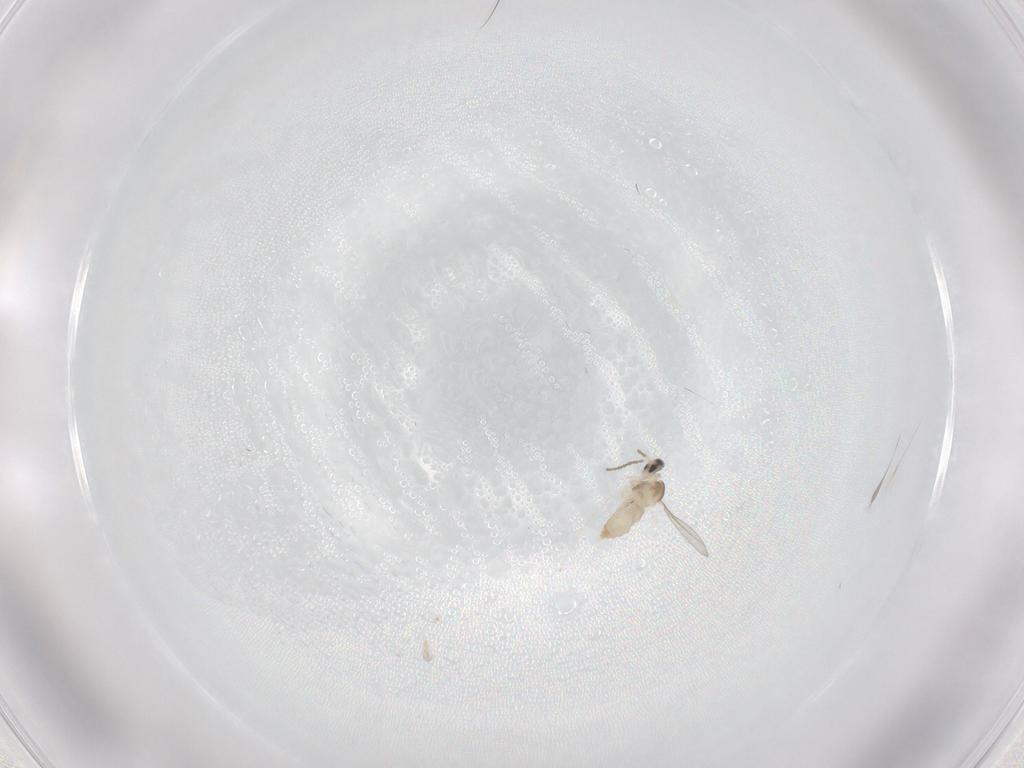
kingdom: Animalia
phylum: Arthropoda
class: Insecta
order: Diptera
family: Cecidomyiidae
